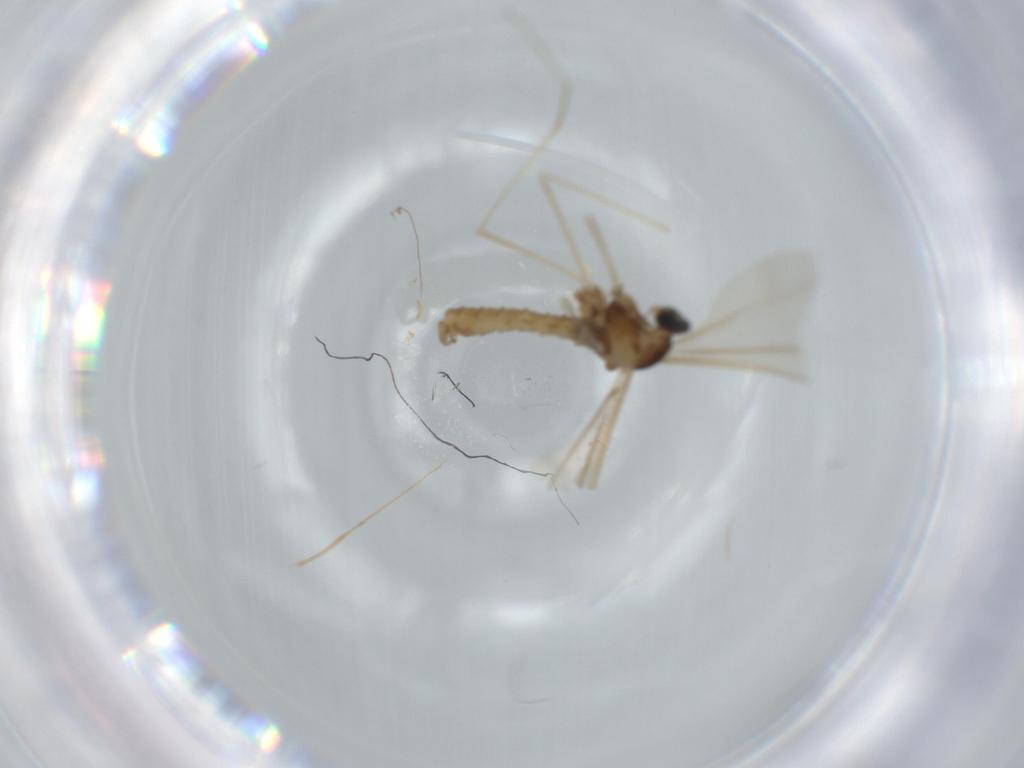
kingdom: Animalia
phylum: Arthropoda
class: Insecta
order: Diptera
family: Cecidomyiidae
